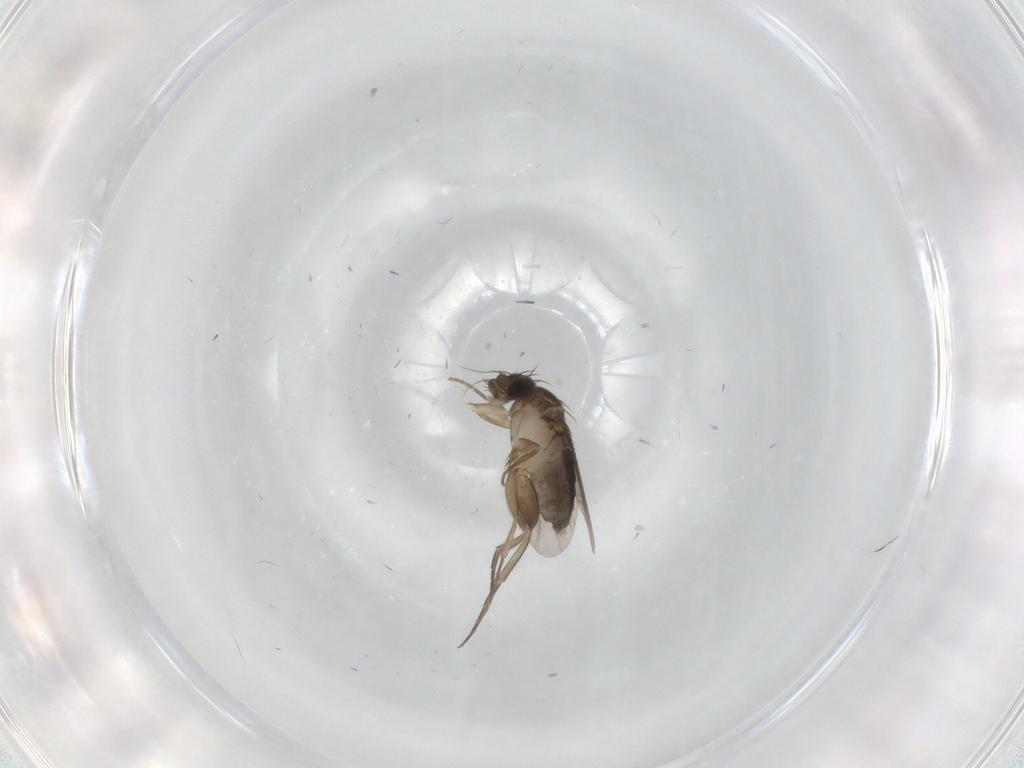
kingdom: Animalia
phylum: Arthropoda
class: Insecta
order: Diptera
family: Phoridae
